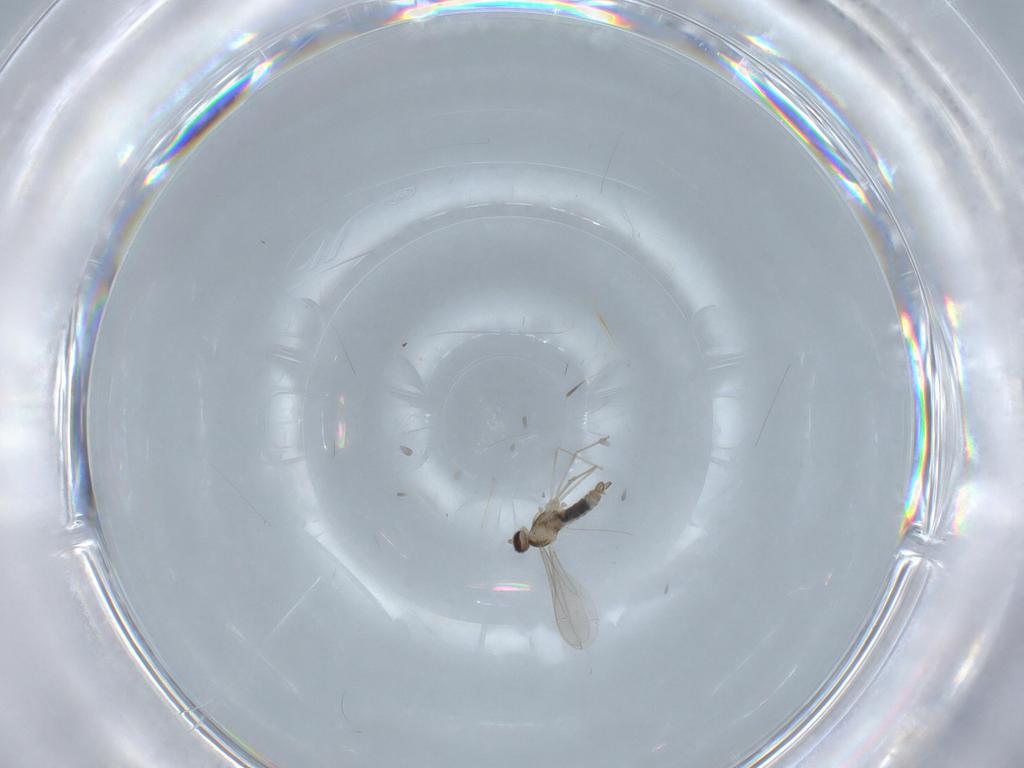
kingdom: Animalia
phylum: Arthropoda
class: Insecta
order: Diptera
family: Cecidomyiidae
